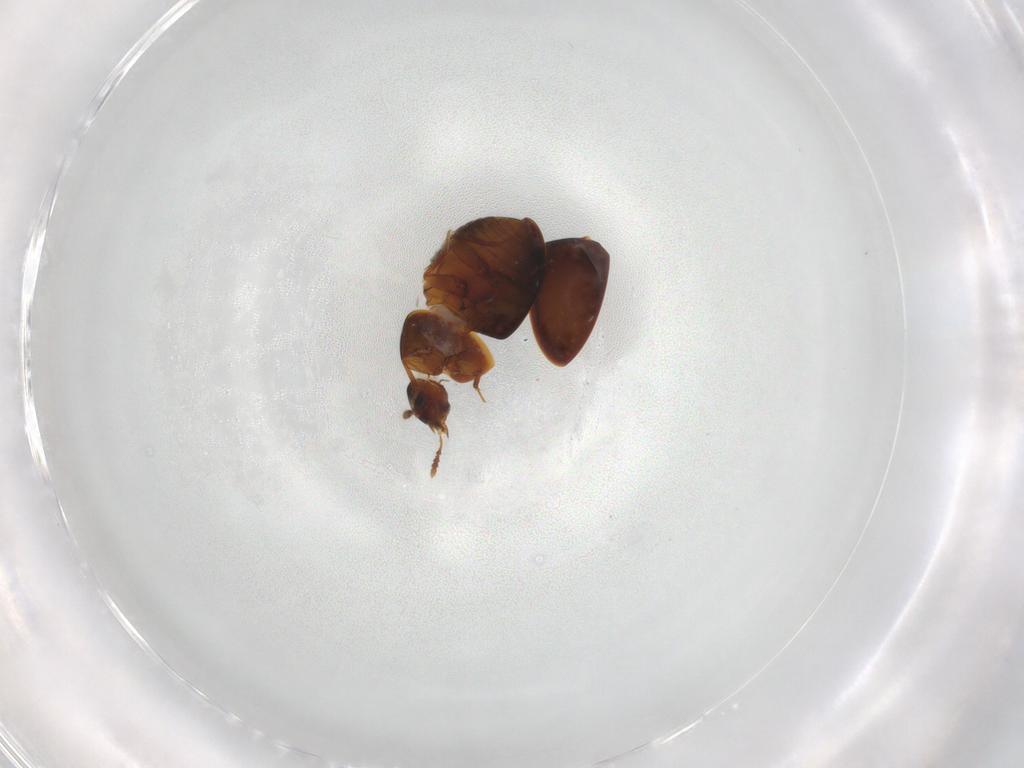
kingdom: Animalia
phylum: Arthropoda
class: Insecta
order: Coleoptera
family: Leiodidae
